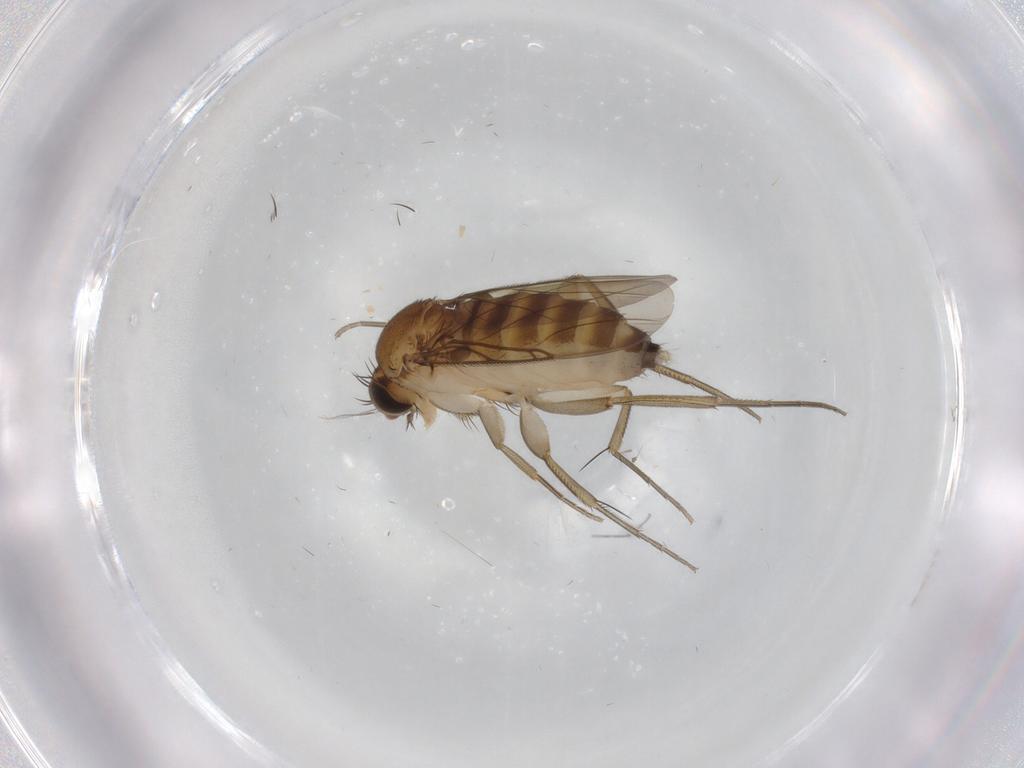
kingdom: Animalia
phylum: Arthropoda
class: Insecta
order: Diptera
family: Phoridae
